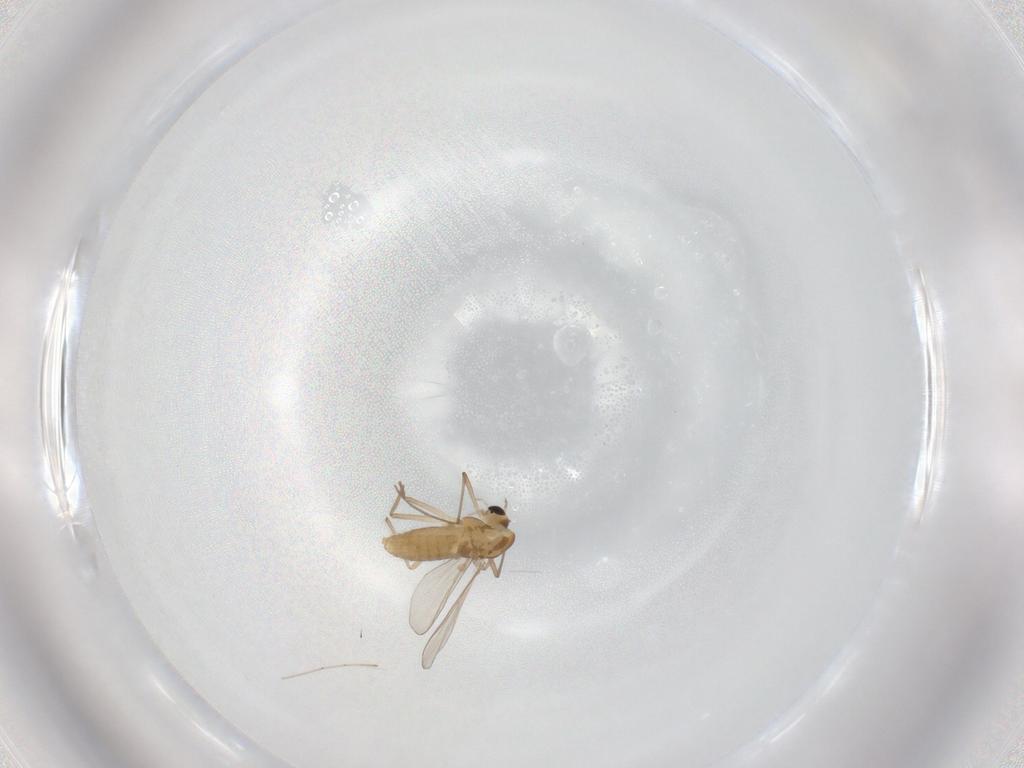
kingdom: Animalia
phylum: Arthropoda
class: Insecta
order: Diptera
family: Chironomidae
